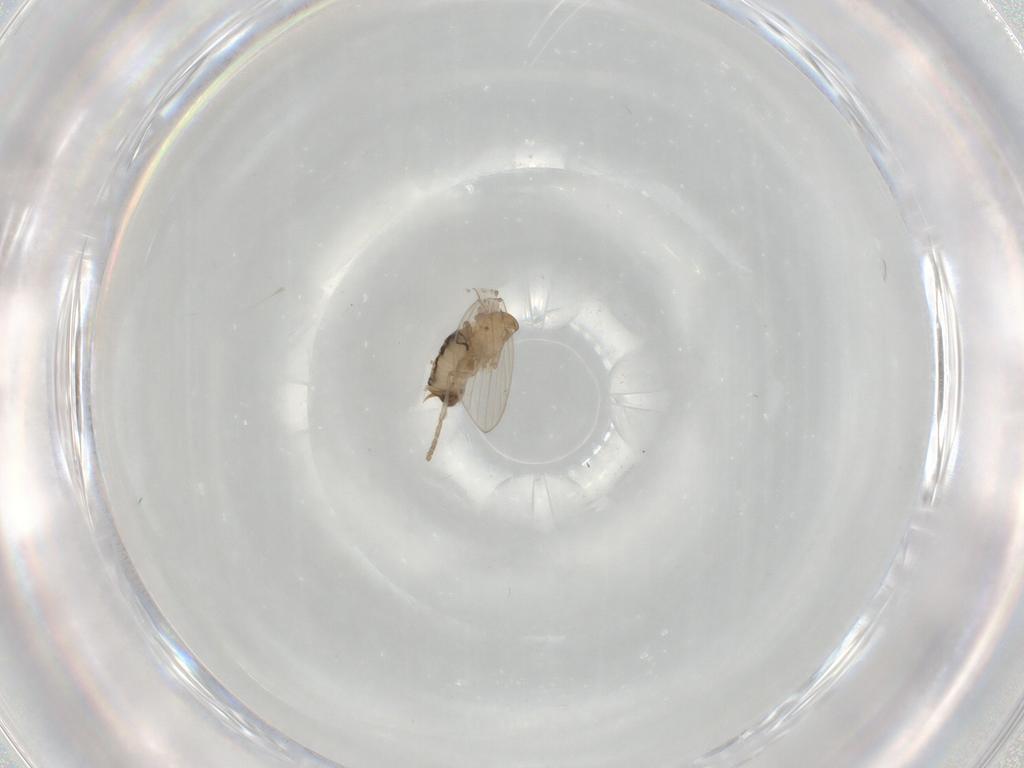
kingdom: Animalia
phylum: Arthropoda
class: Insecta
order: Diptera
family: Psychodidae
